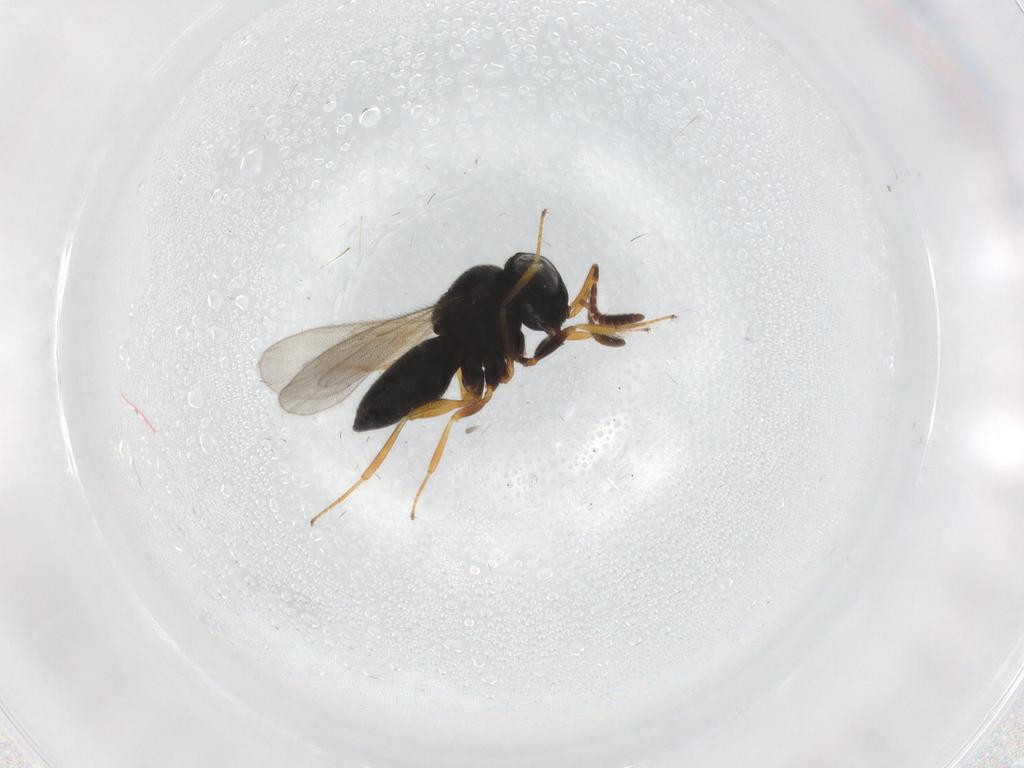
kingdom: Animalia
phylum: Arthropoda
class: Insecta
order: Hymenoptera
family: Scelionidae
